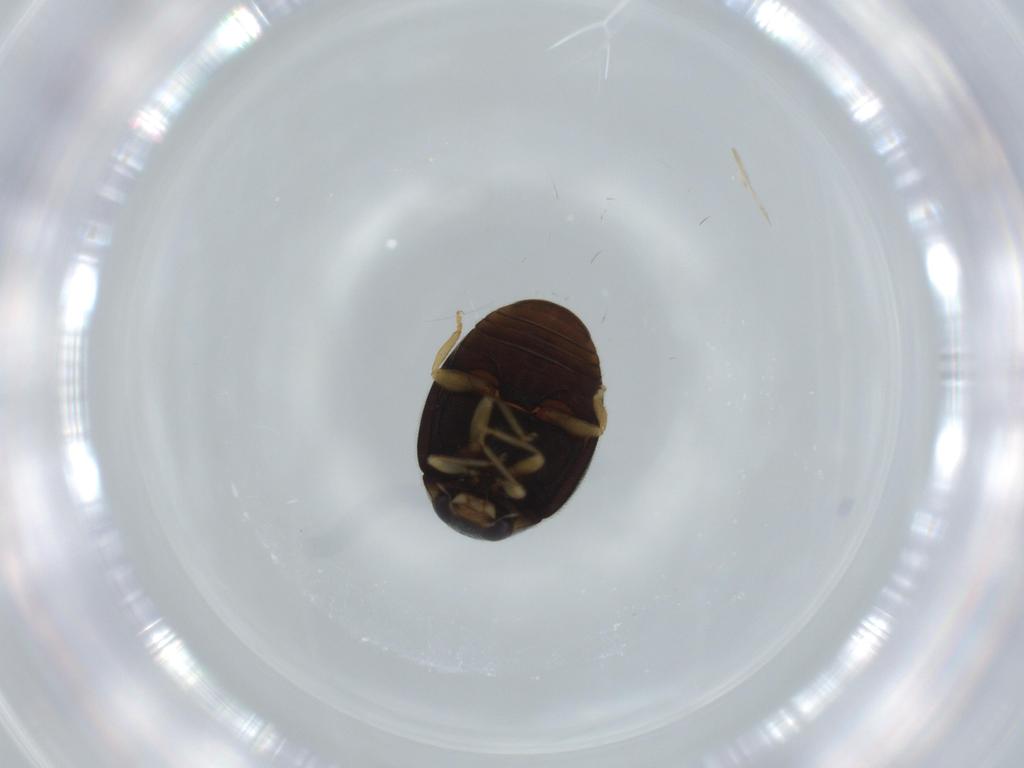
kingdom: Animalia
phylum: Arthropoda
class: Insecta
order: Coleoptera
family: Coccinellidae
